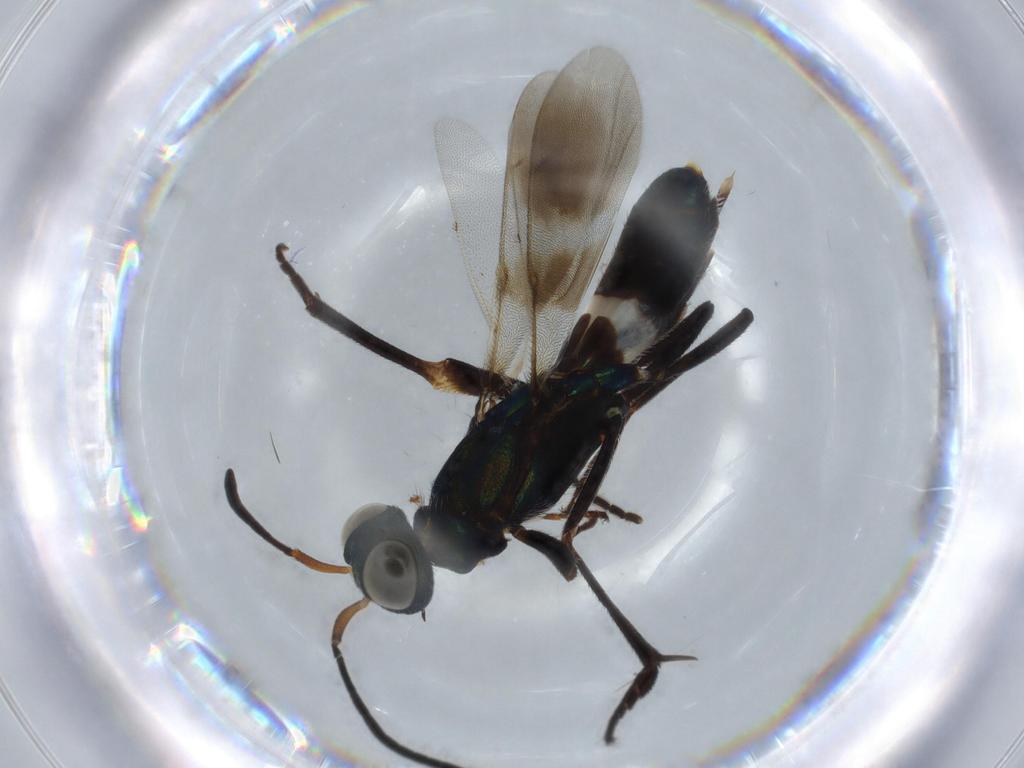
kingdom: Animalia
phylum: Arthropoda
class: Insecta
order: Hymenoptera
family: Mymaridae
